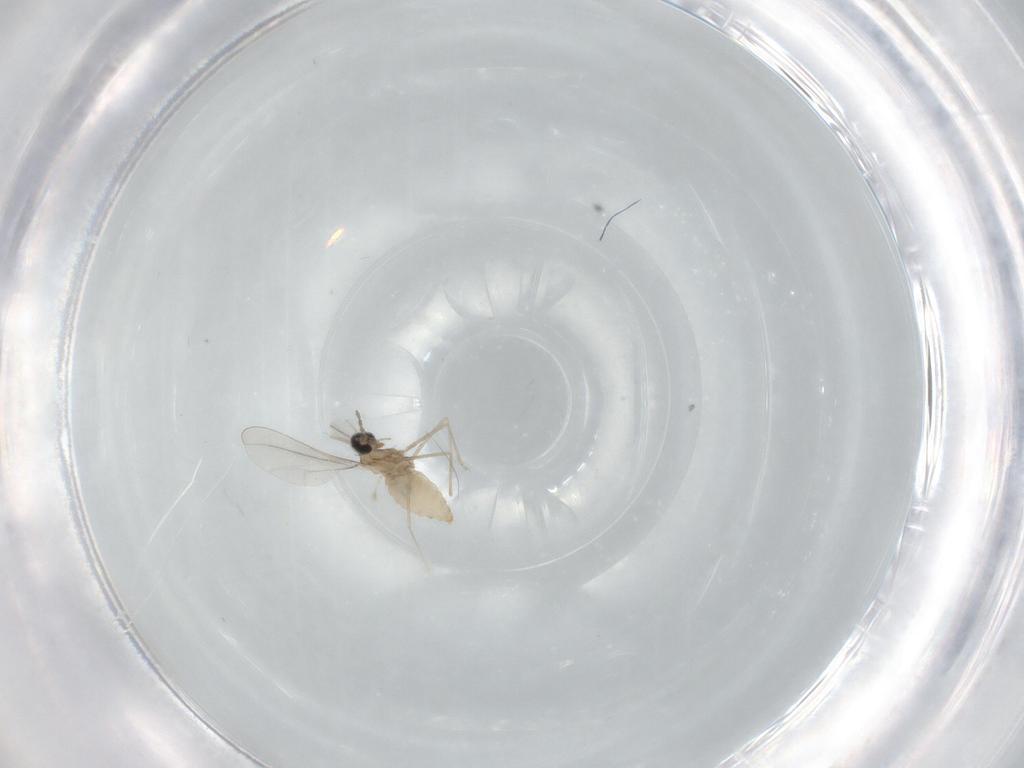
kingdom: Animalia
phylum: Arthropoda
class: Insecta
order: Diptera
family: Cecidomyiidae
